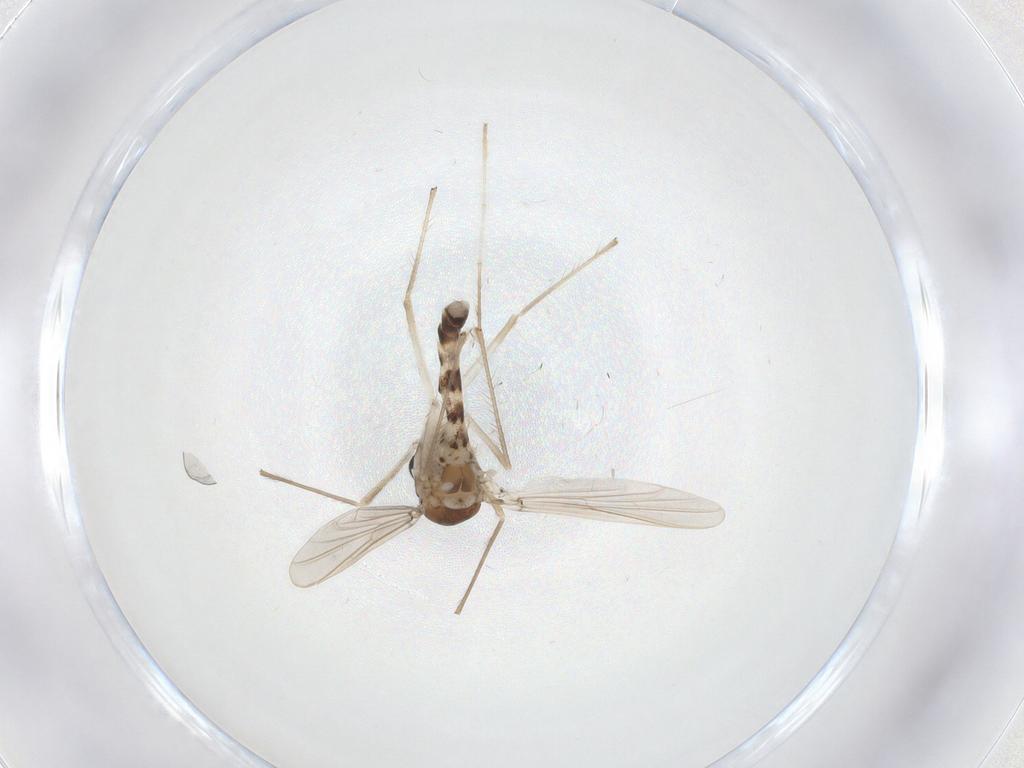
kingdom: Animalia
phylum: Arthropoda
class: Insecta
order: Diptera
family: Chironomidae
